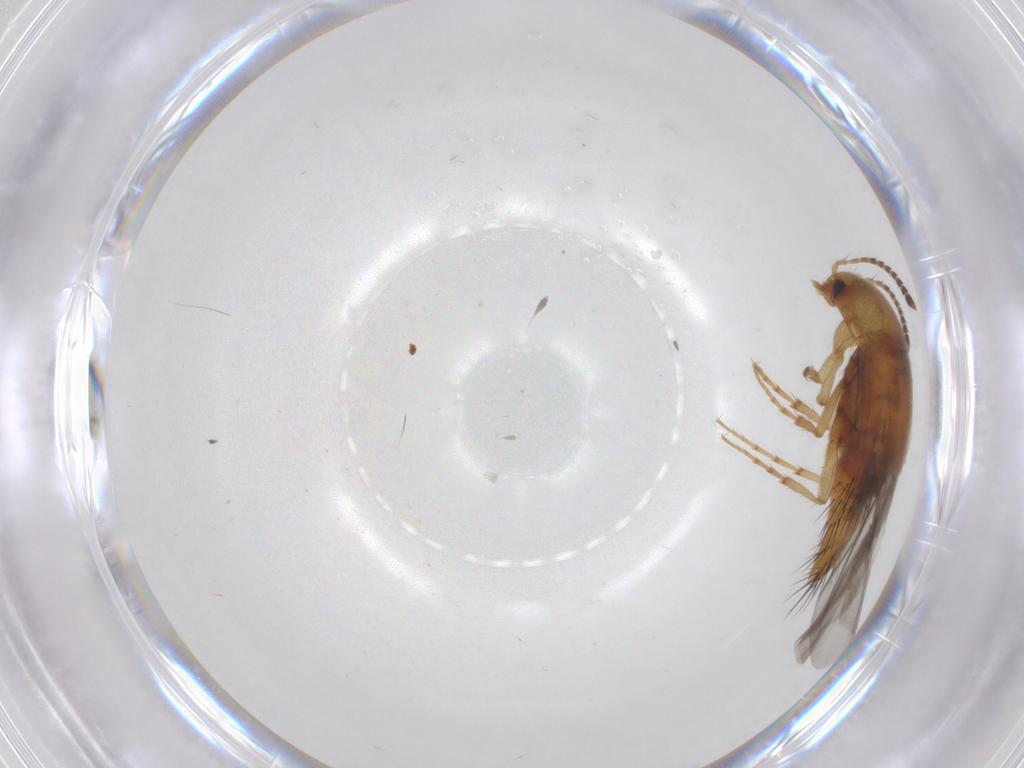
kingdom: Animalia
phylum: Arthropoda
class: Insecta
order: Coleoptera
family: Staphylinidae
